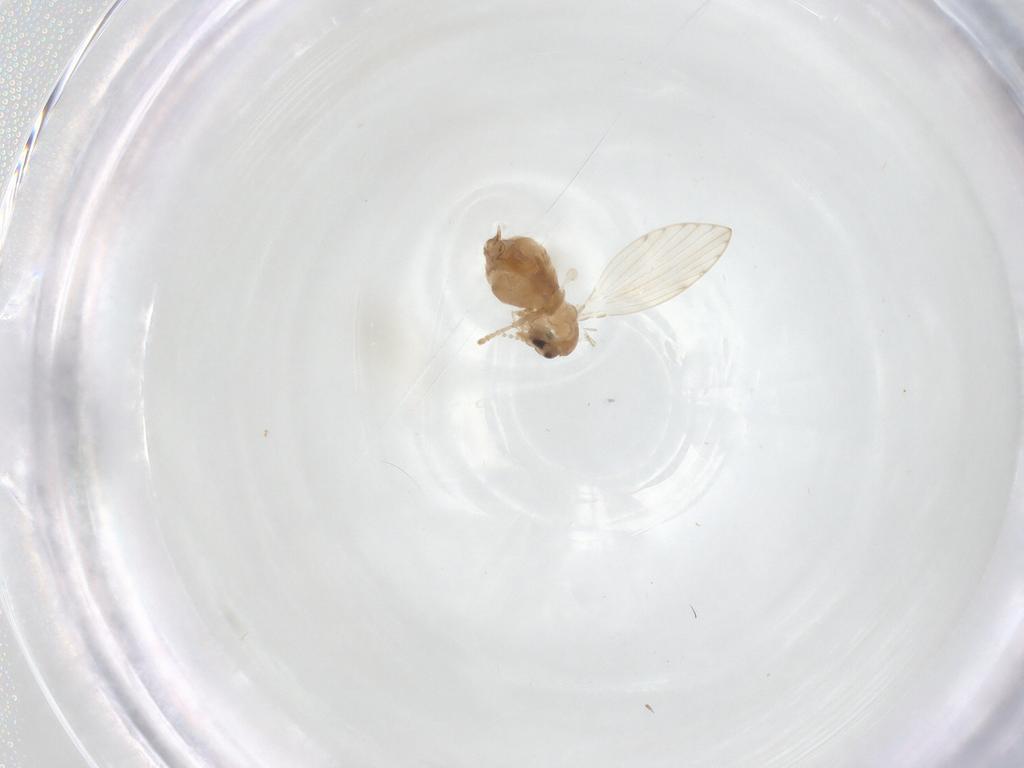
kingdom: Animalia
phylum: Arthropoda
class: Insecta
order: Diptera
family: Psychodidae
